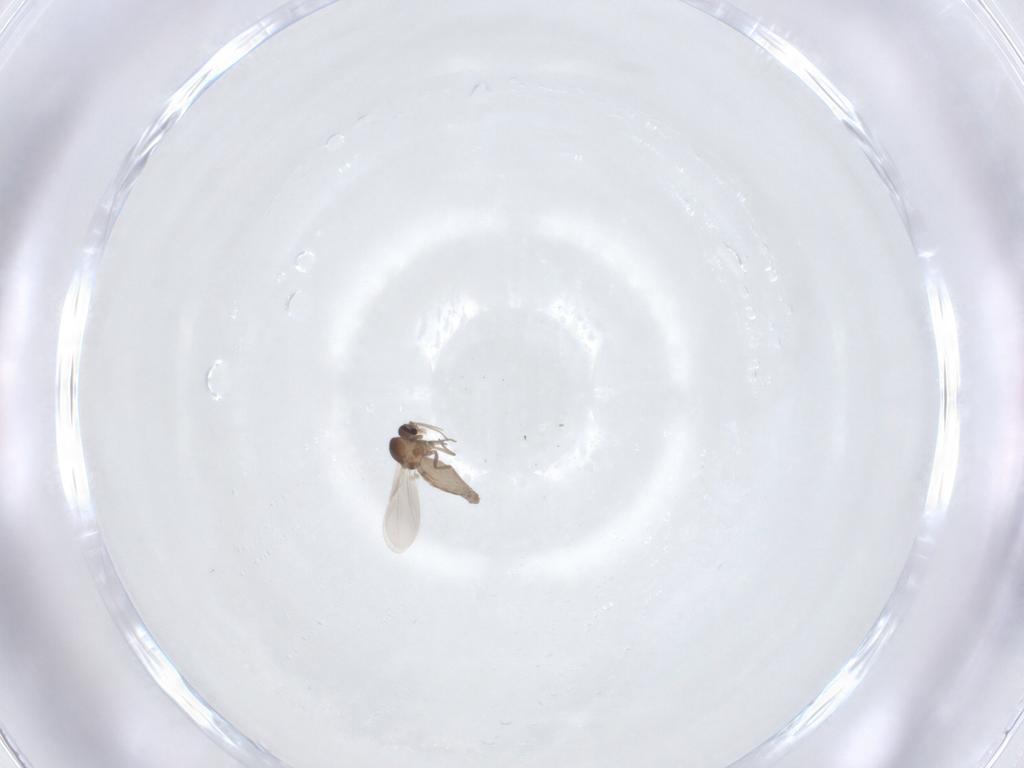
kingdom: Animalia
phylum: Arthropoda
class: Insecta
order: Diptera
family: Ceratopogonidae
